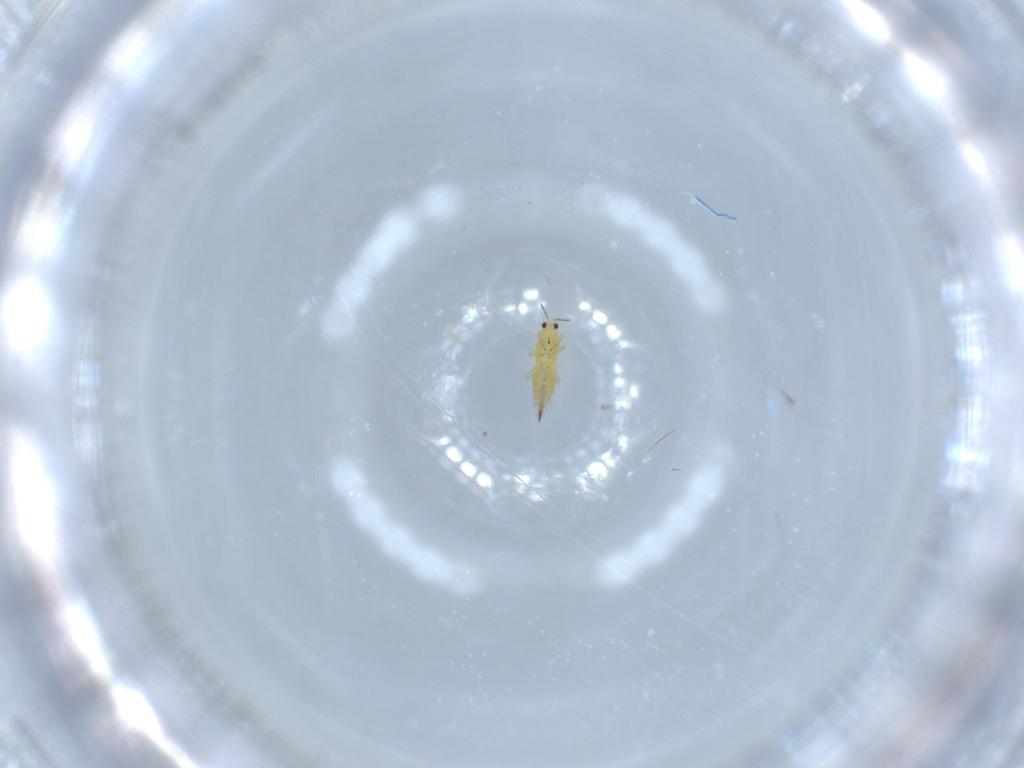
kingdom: Animalia
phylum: Arthropoda
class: Insecta
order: Thysanoptera
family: Thripidae
